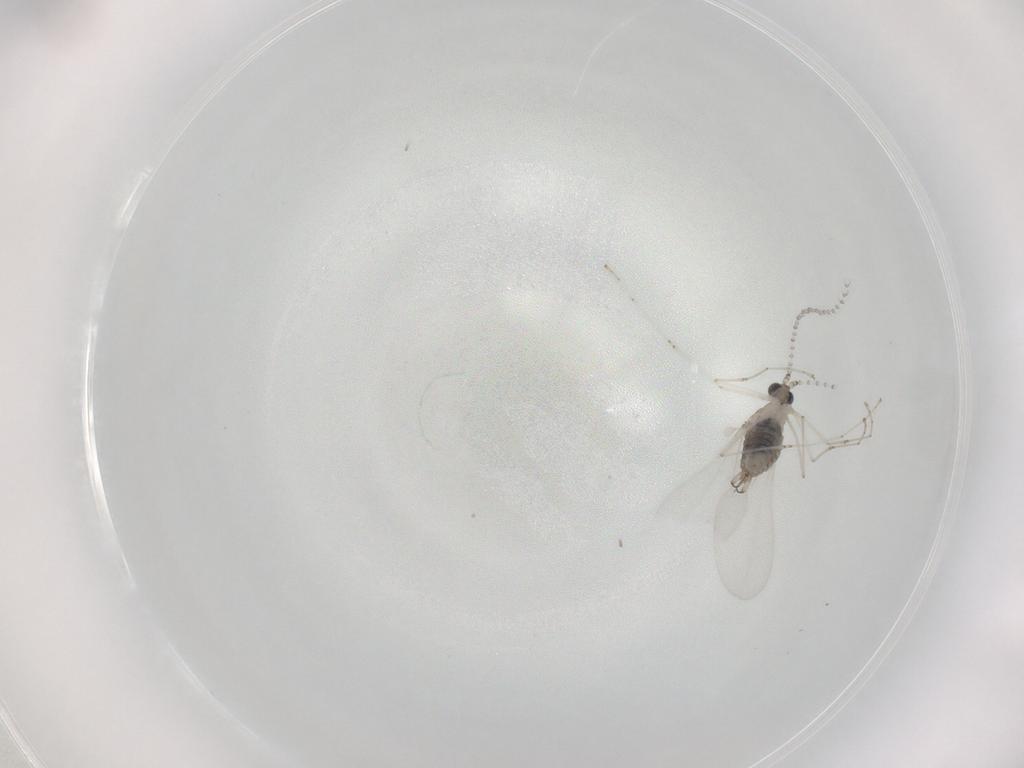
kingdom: Animalia
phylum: Arthropoda
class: Insecta
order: Diptera
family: Cecidomyiidae
